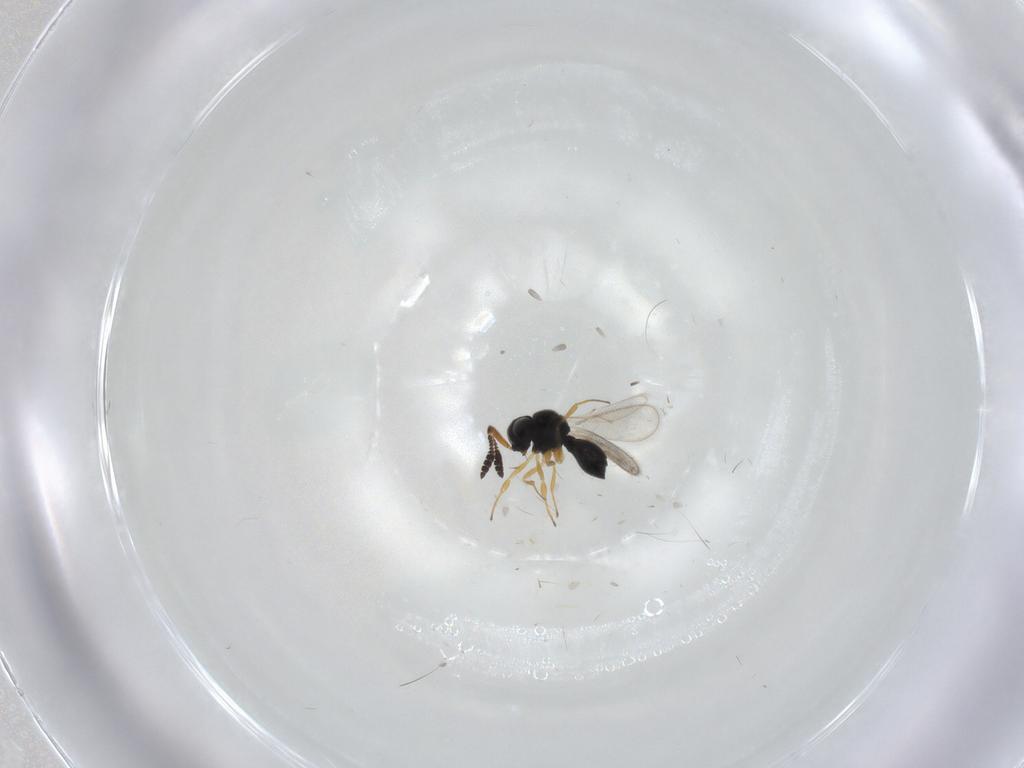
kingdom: Animalia
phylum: Arthropoda
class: Insecta
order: Hymenoptera
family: Scelionidae
